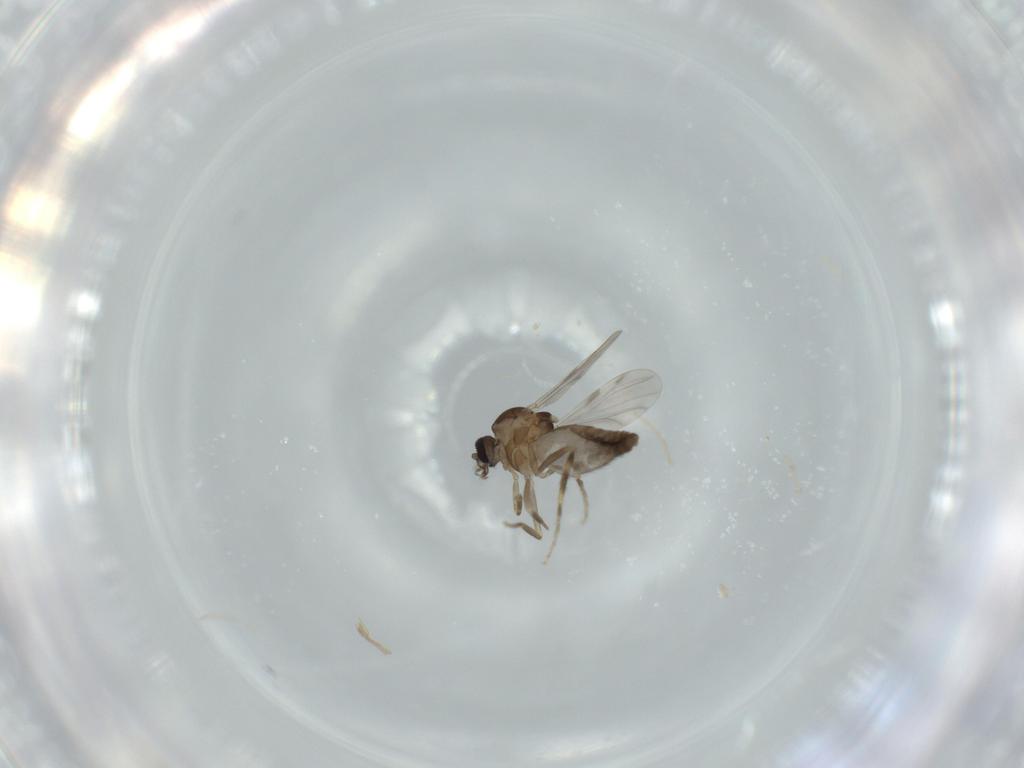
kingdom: Animalia
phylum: Arthropoda
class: Insecta
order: Diptera
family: Ceratopogonidae
